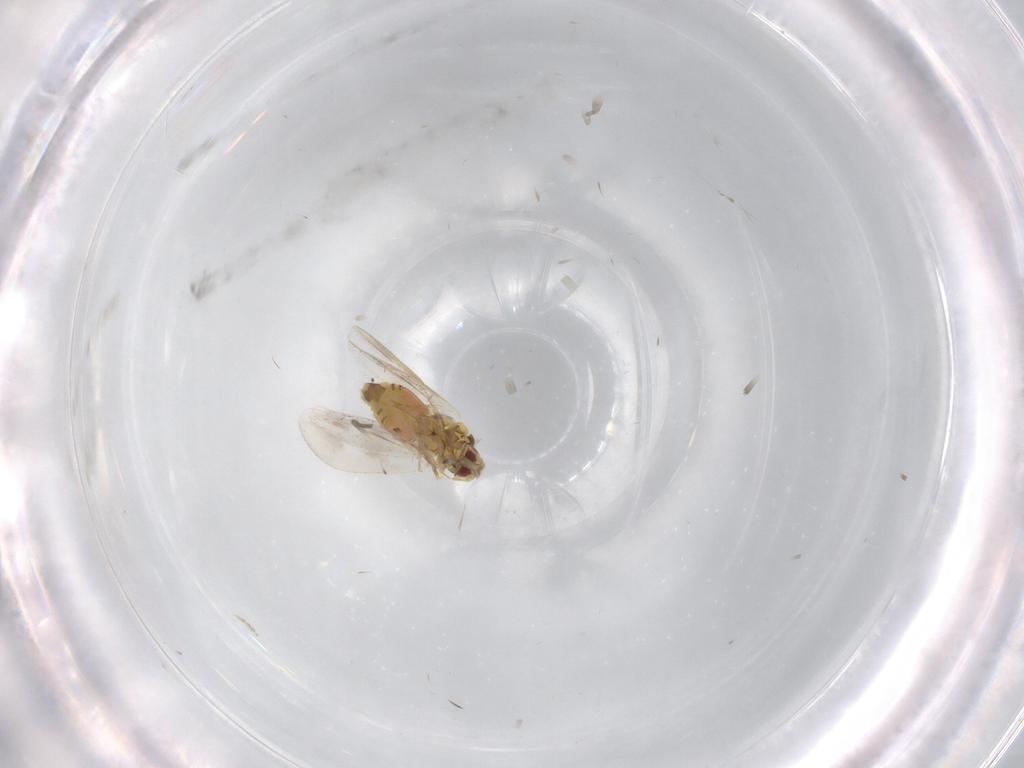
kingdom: Animalia
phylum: Arthropoda
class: Insecta
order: Hemiptera
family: Aleyrodidae
